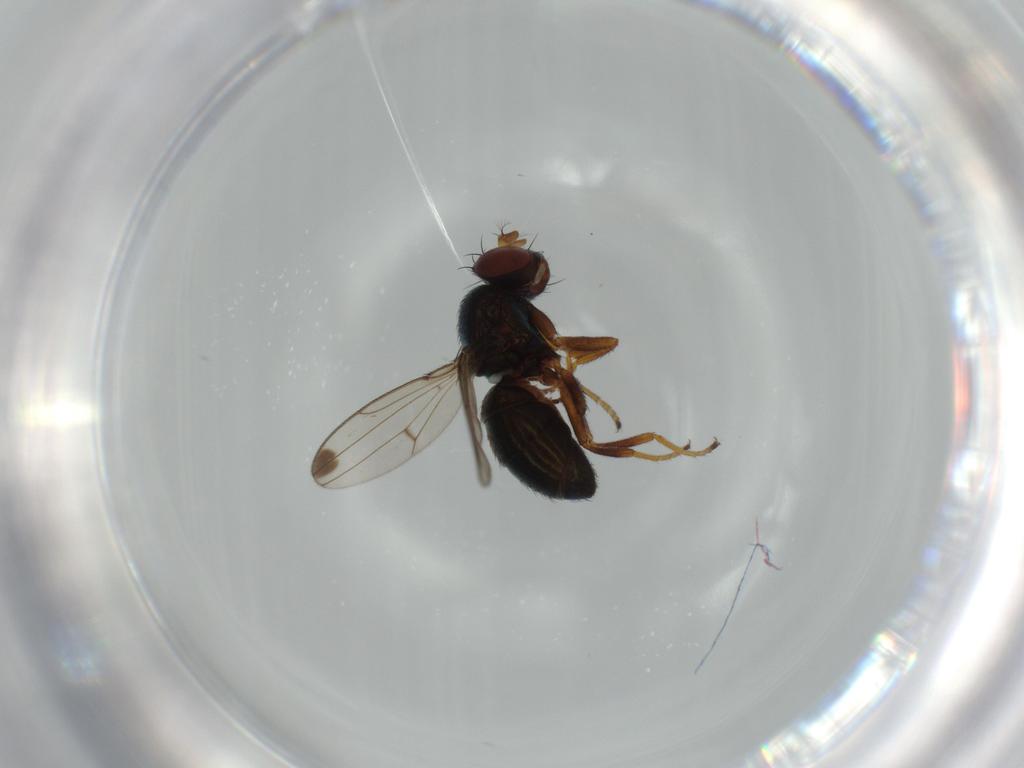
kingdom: Animalia
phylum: Arthropoda
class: Insecta
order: Diptera
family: Ephydridae
